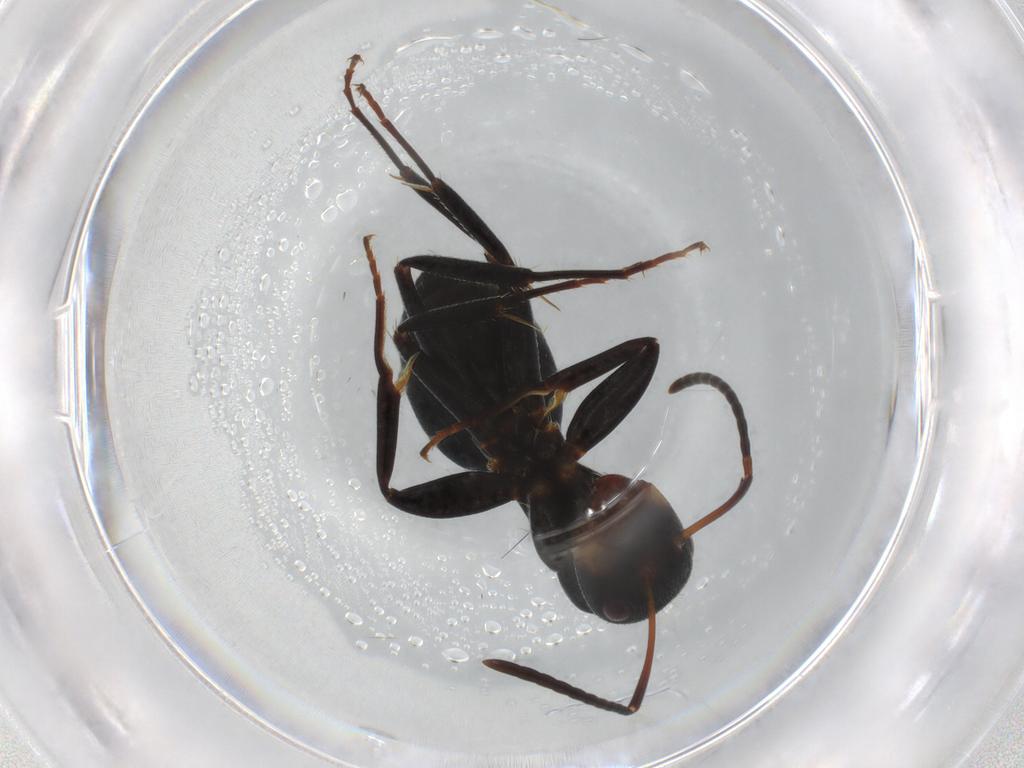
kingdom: Animalia
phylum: Arthropoda
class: Insecta
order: Hymenoptera
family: Formicidae
